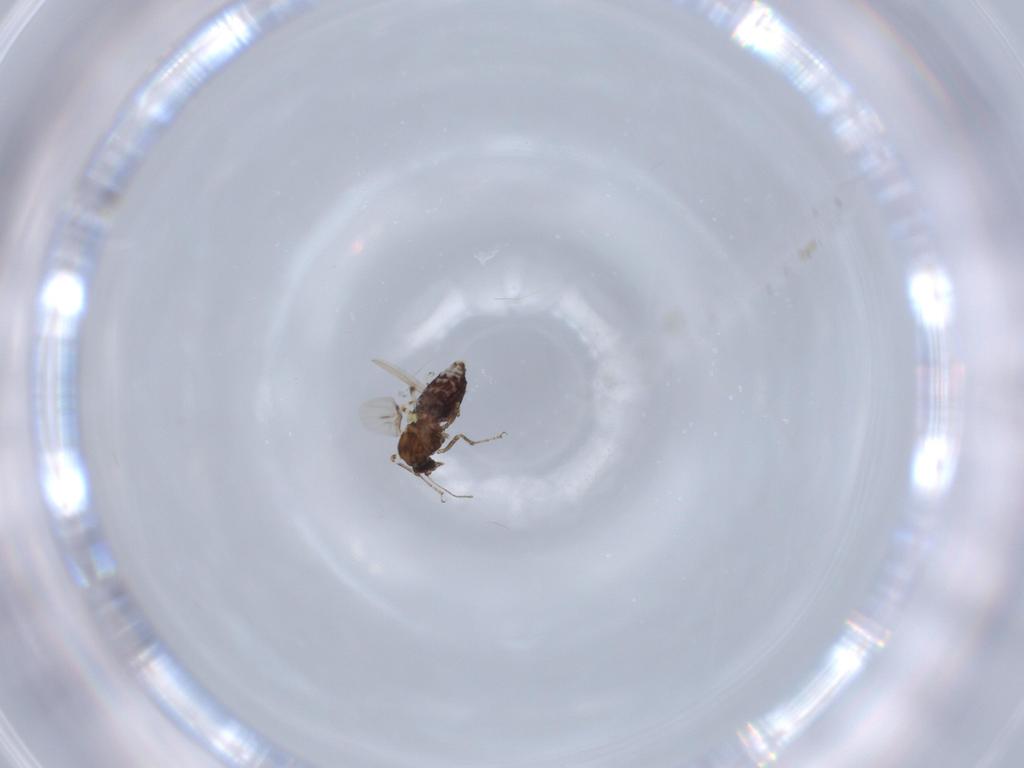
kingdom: Animalia
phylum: Arthropoda
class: Insecta
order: Diptera
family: Ceratopogonidae
